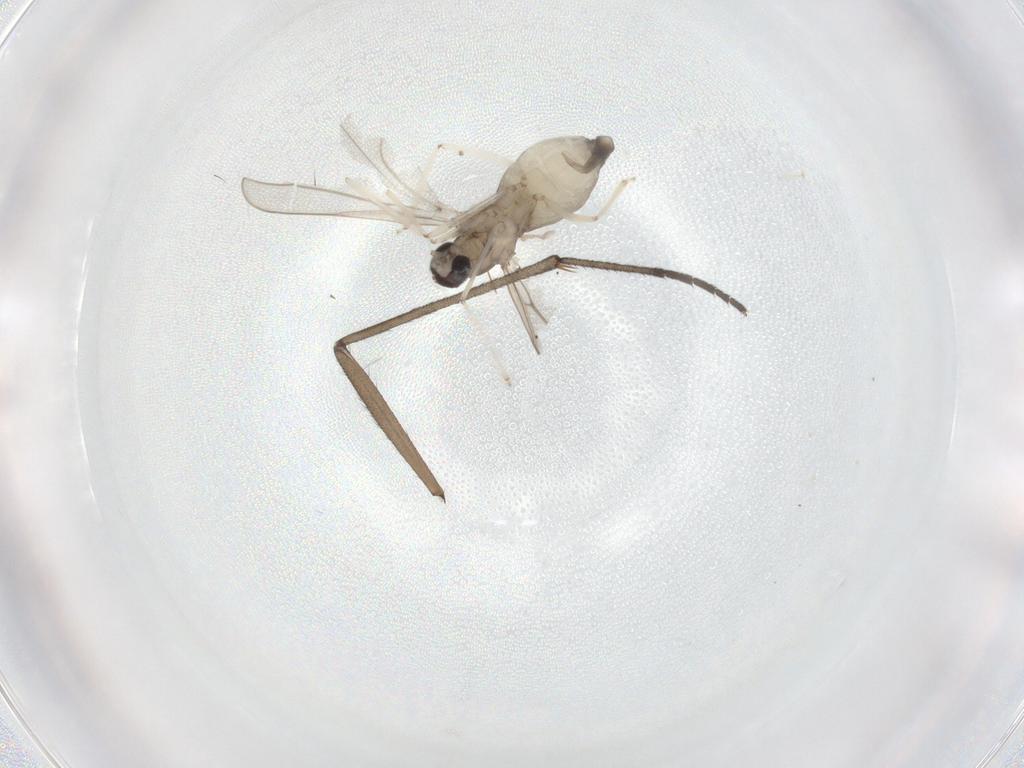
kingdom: Animalia
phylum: Arthropoda
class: Insecta
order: Diptera
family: Cecidomyiidae
